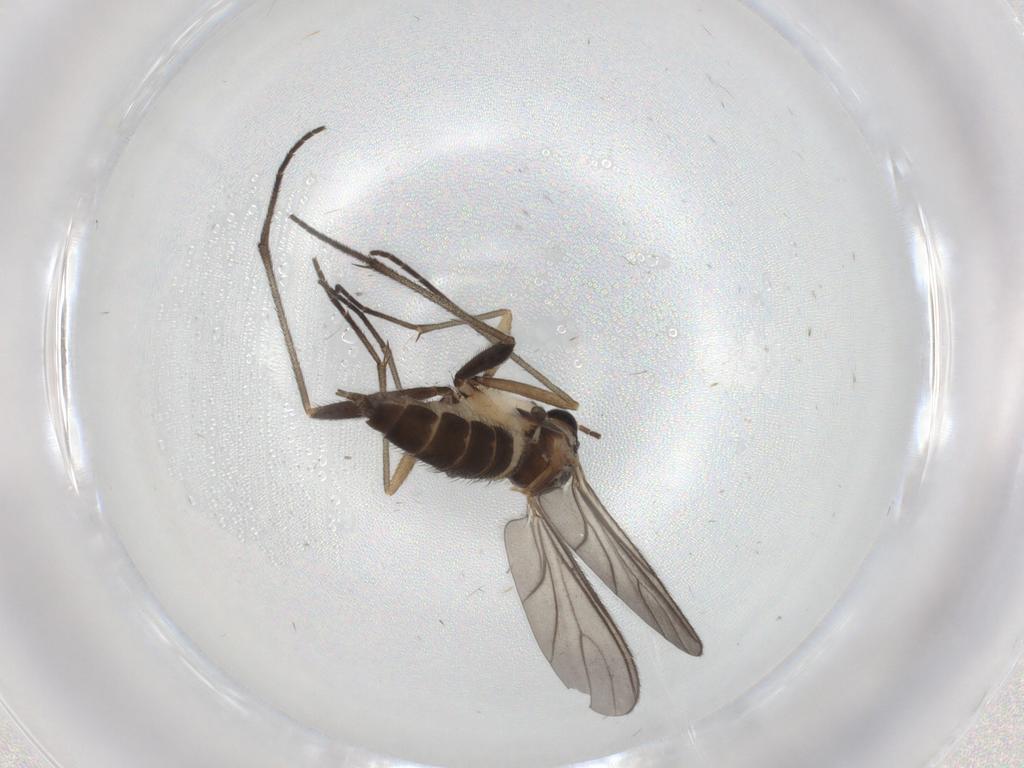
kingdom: Animalia
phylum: Arthropoda
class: Insecta
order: Diptera
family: Sciaridae
